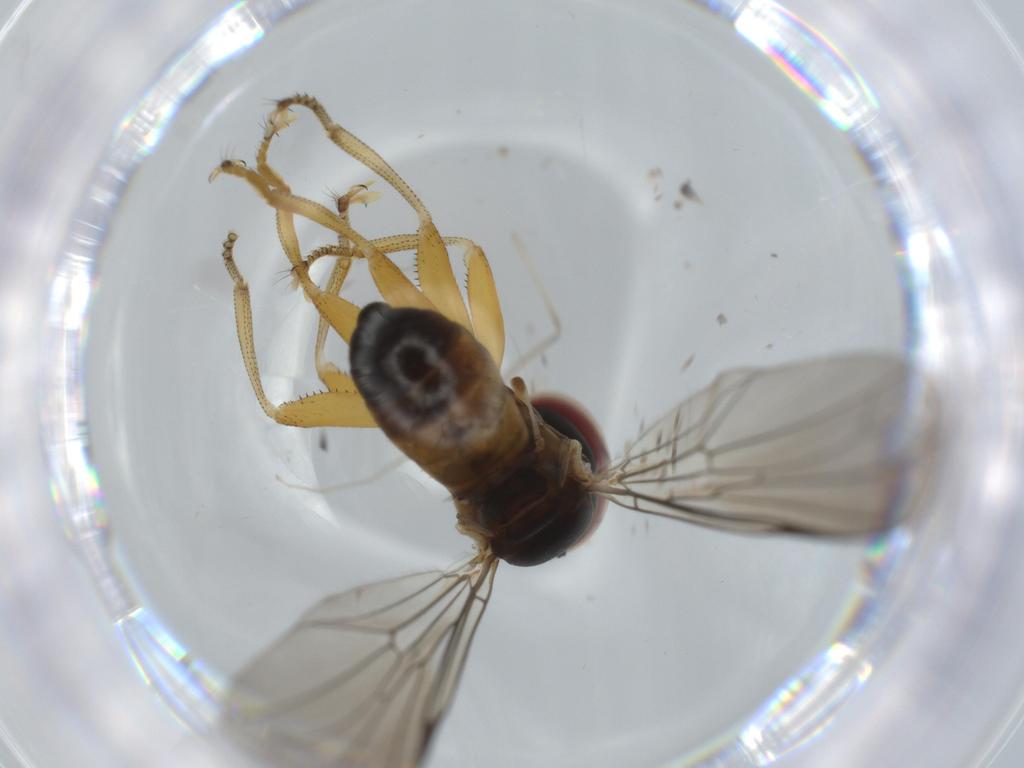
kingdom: Animalia
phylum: Arthropoda
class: Insecta
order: Diptera
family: Pipunculidae
